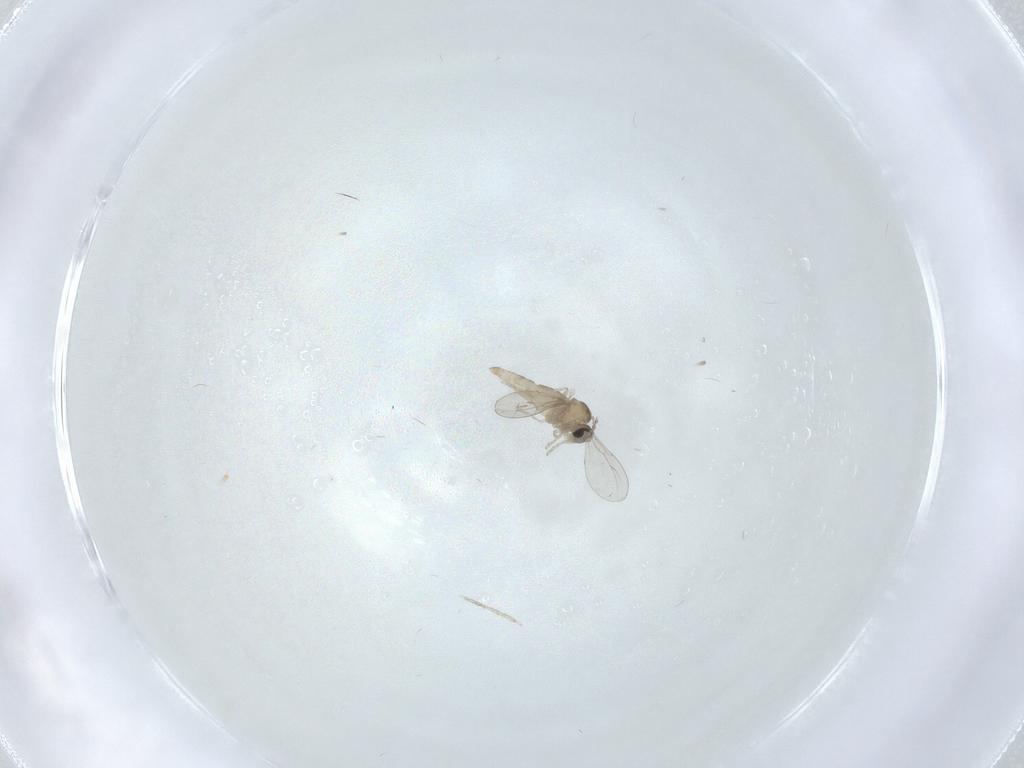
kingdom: Animalia
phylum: Arthropoda
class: Insecta
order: Diptera
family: Cecidomyiidae
